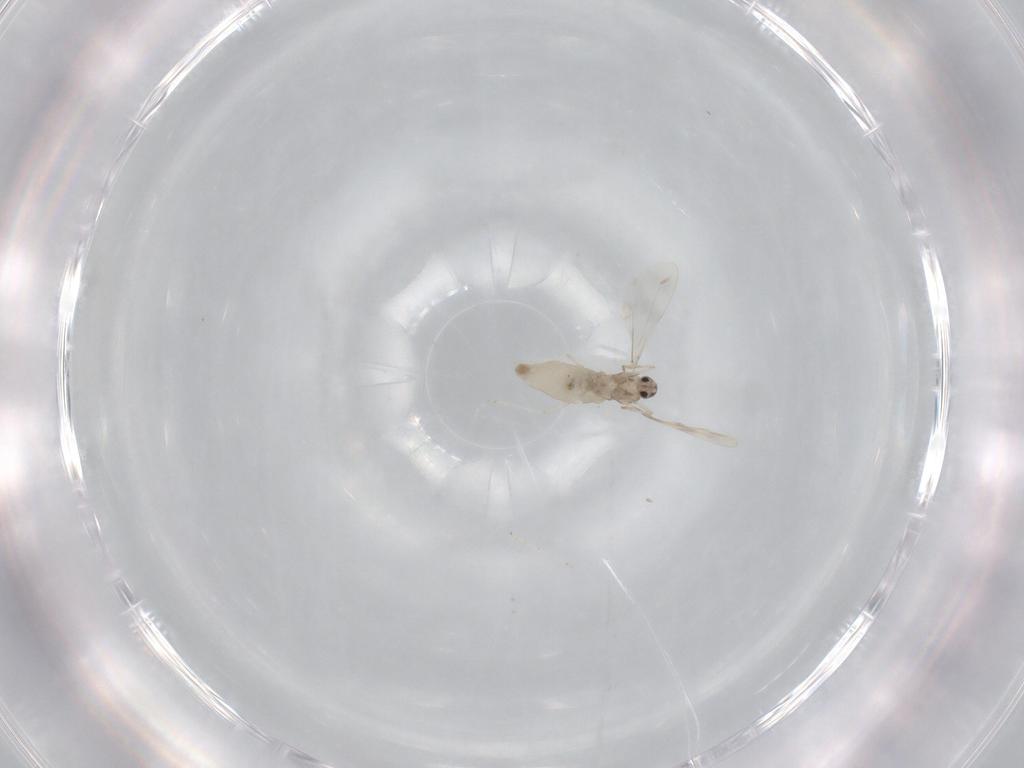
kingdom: Animalia
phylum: Arthropoda
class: Insecta
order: Diptera
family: Cecidomyiidae
